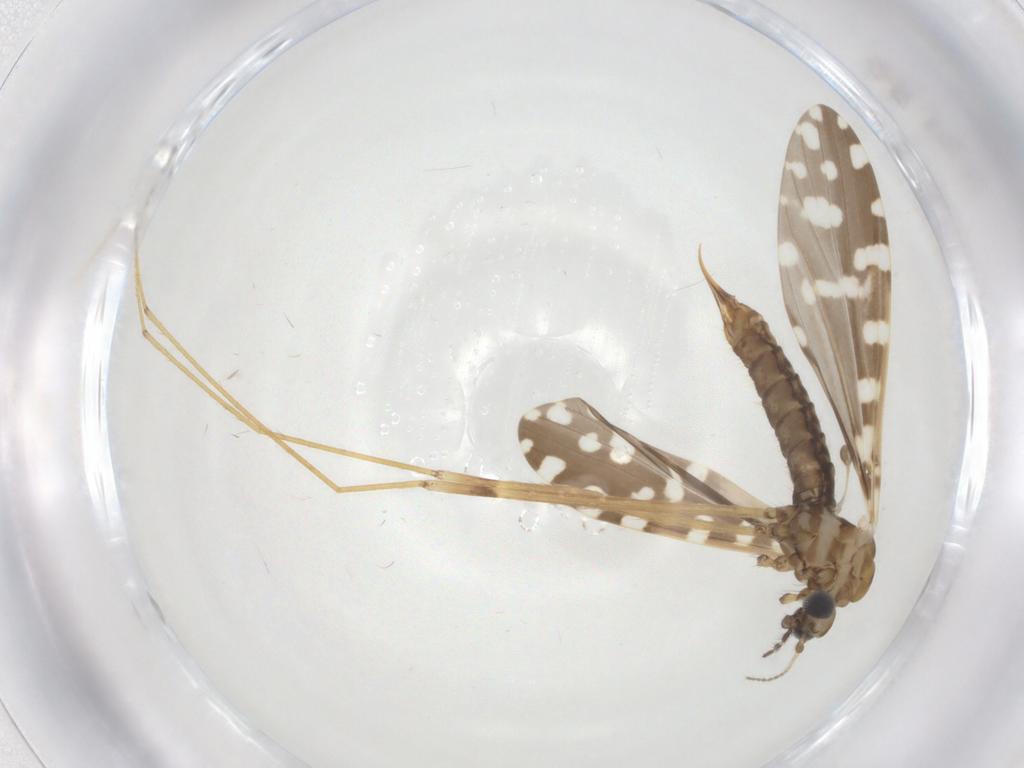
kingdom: Animalia
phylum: Arthropoda
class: Insecta
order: Diptera
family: Limoniidae
